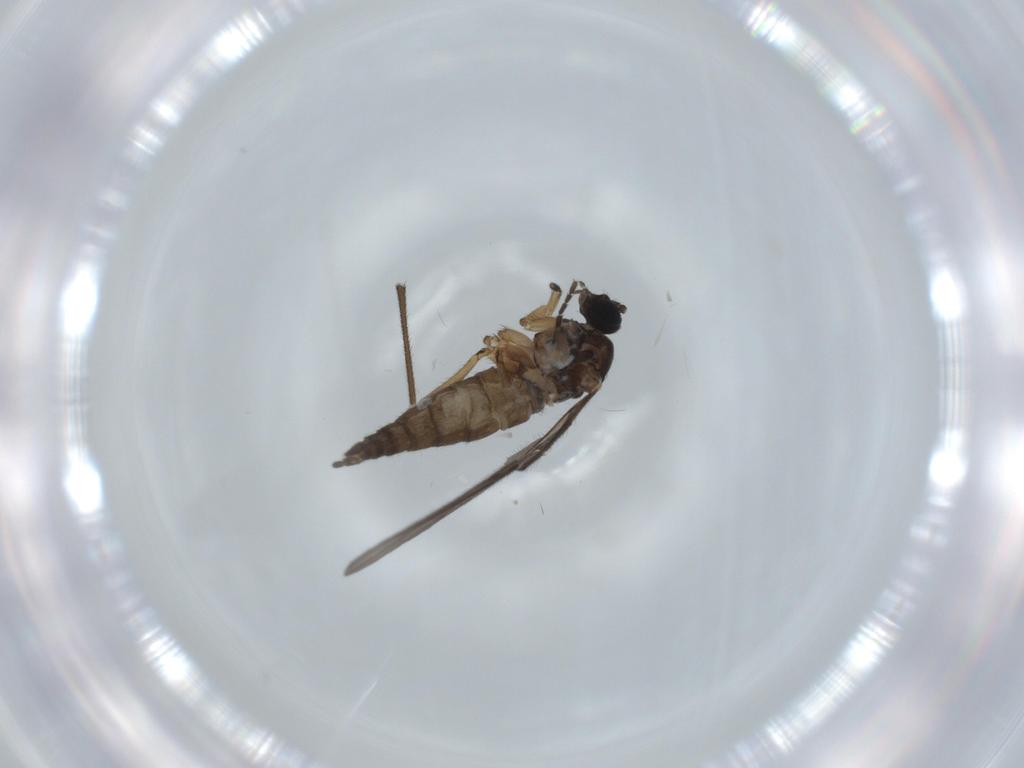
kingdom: Animalia
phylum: Arthropoda
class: Insecta
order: Diptera
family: Sciaridae
